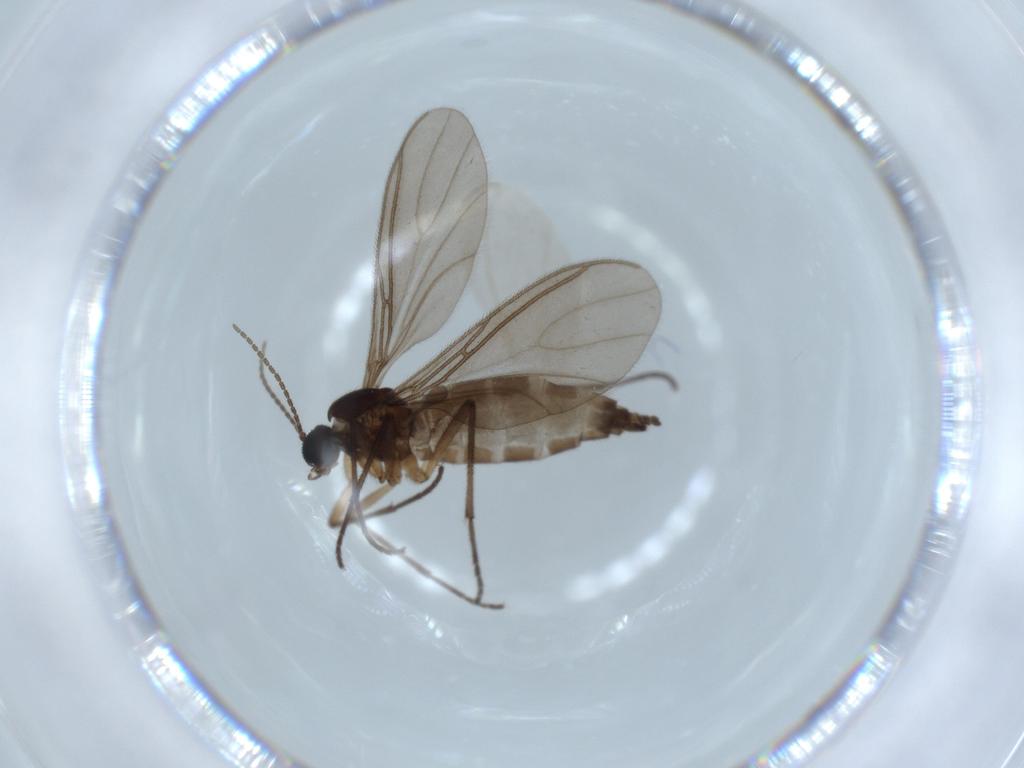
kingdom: Animalia
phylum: Arthropoda
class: Insecta
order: Diptera
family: Sciaridae
